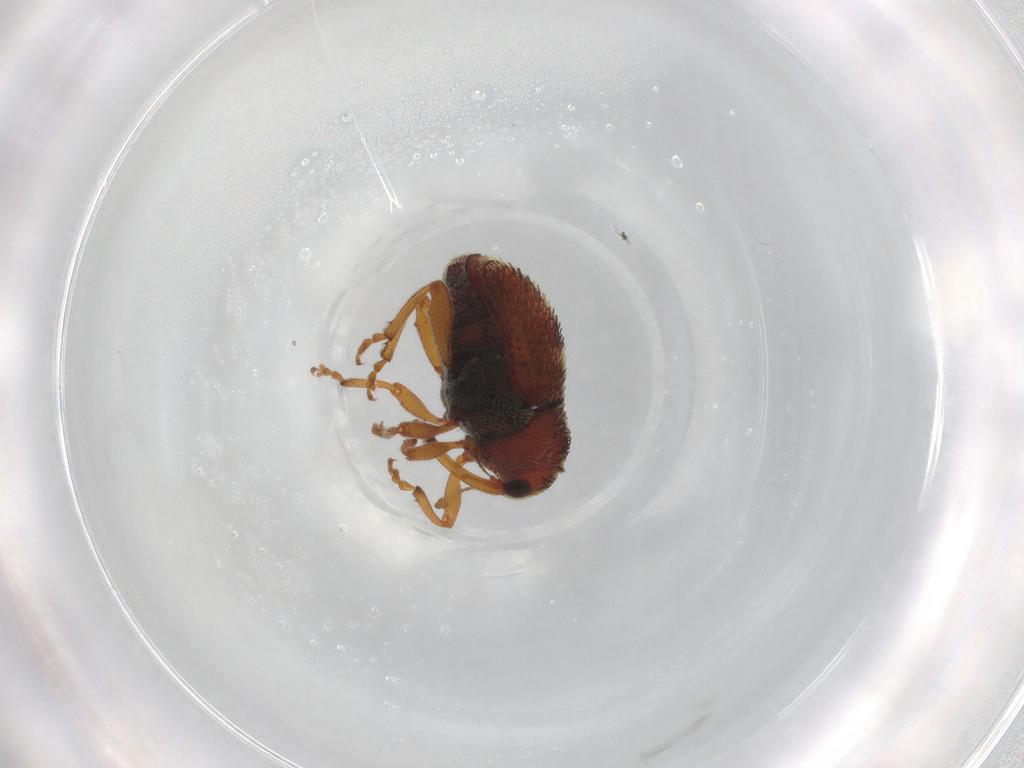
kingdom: Animalia
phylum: Arthropoda
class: Insecta
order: Coleoptera
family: Curculionidae
